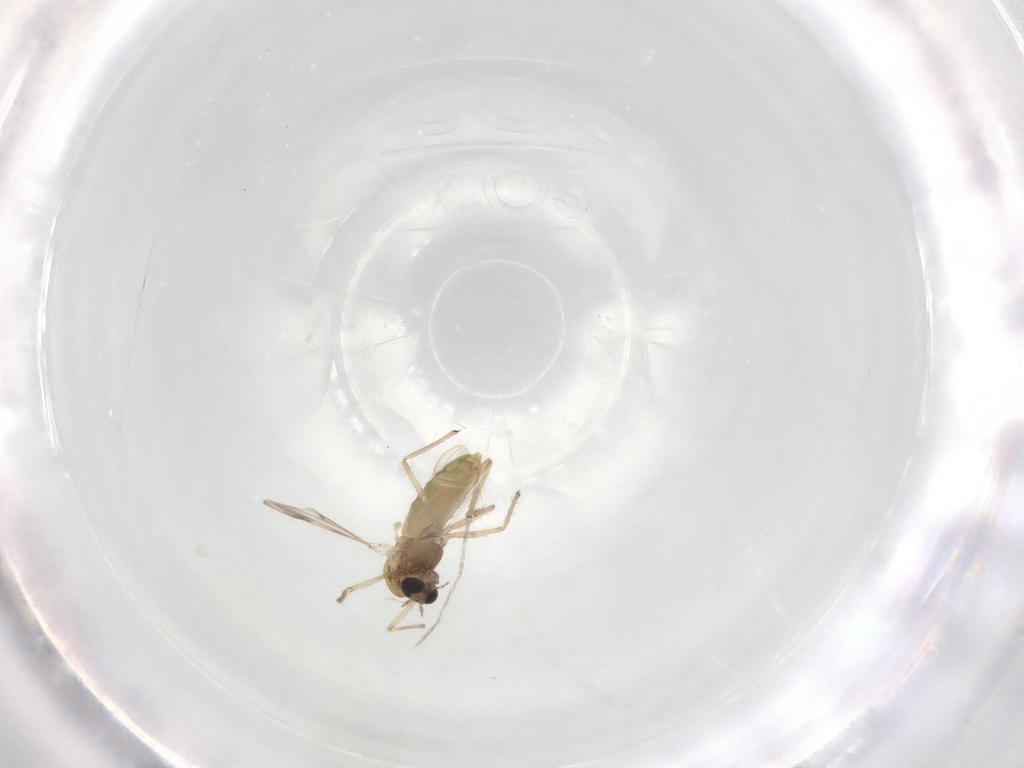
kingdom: Animalia
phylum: Arthropoda
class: Insecta
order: Diptera
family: Chironomidae
